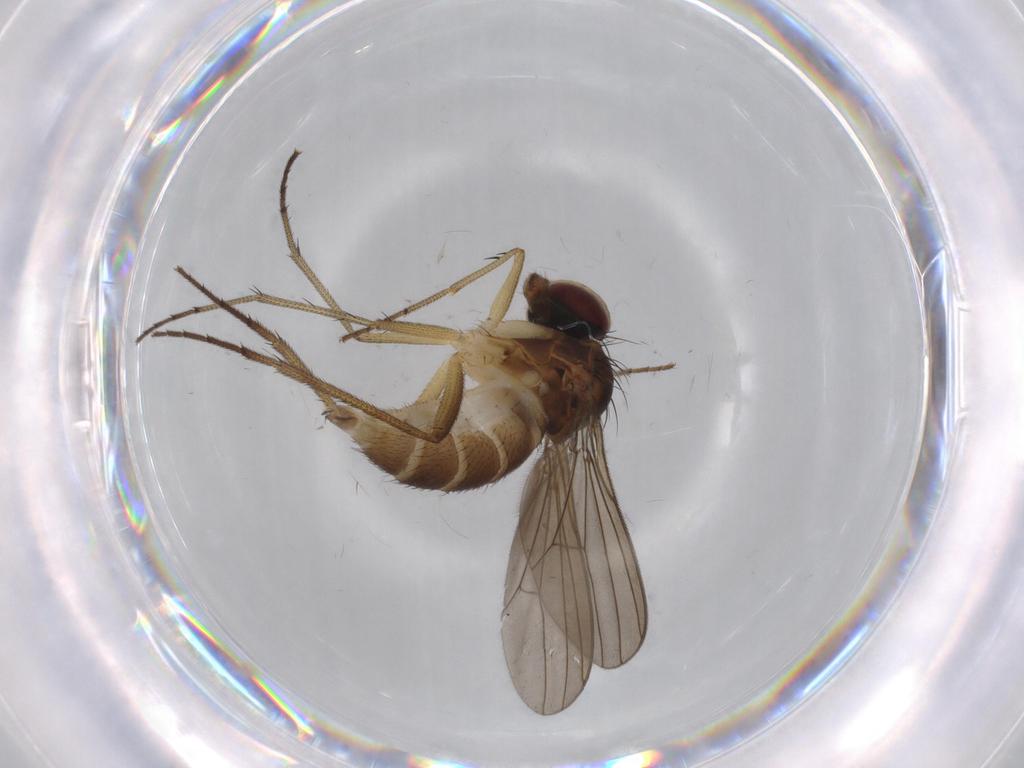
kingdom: Animalia
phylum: Arthropoda
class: Insecta
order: Diptera
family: Dolichopodidae
